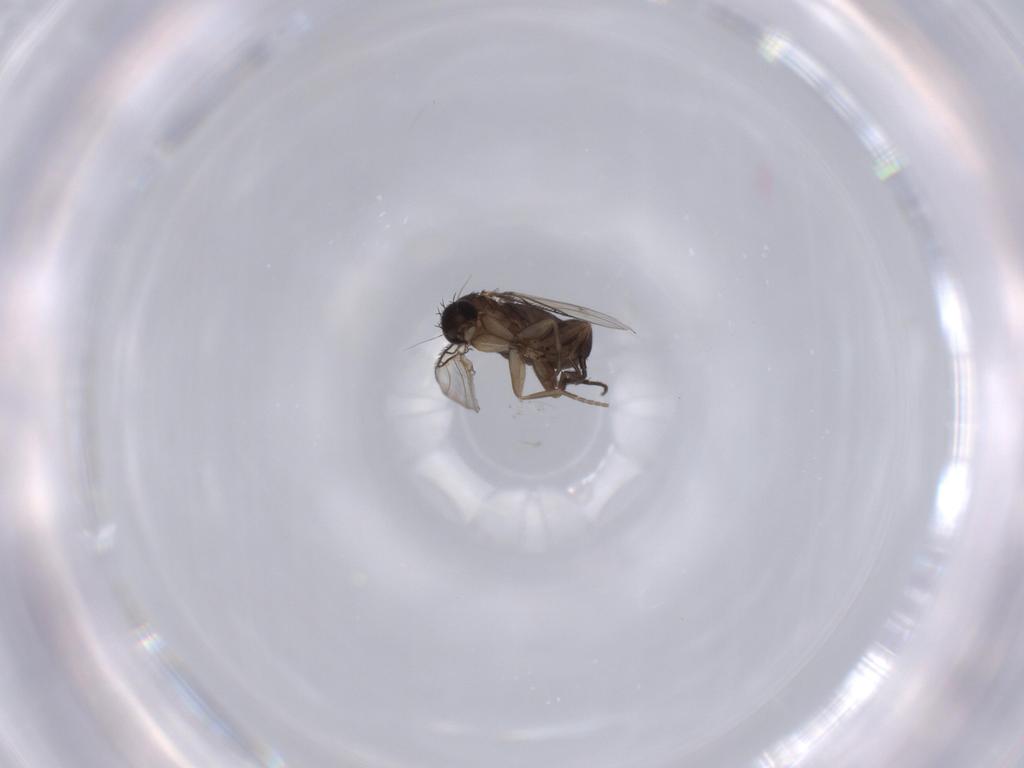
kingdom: Animalia
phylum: Arthropoda
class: Insecta
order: Diptera
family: Phoridae
